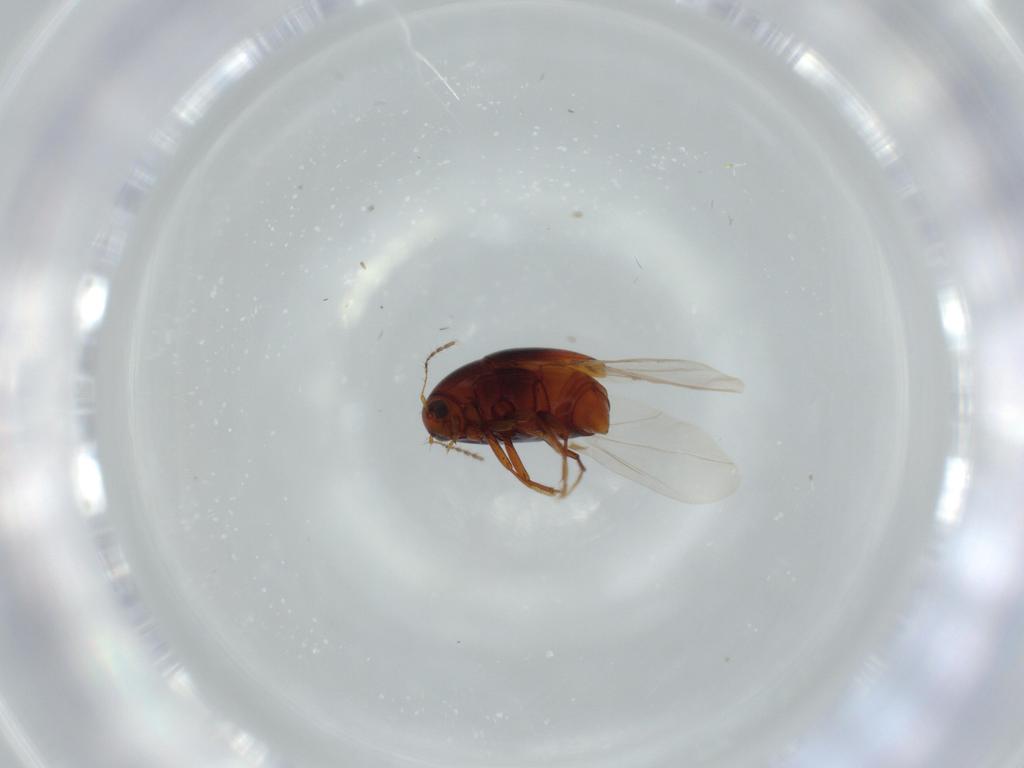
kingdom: Animalia
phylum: Arthropoda
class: Insecta
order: Coleoptera
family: Staphylinidae
